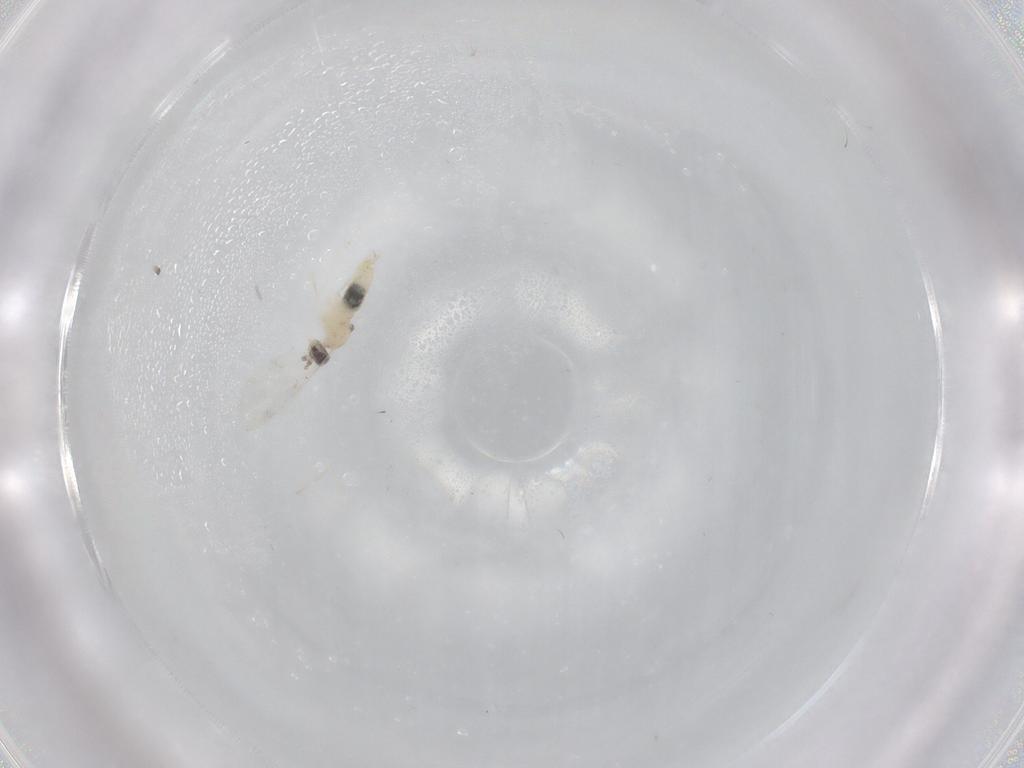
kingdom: Animalia
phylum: Arthropoda
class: Insecta
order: Diptera
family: Cecidomyiidae
